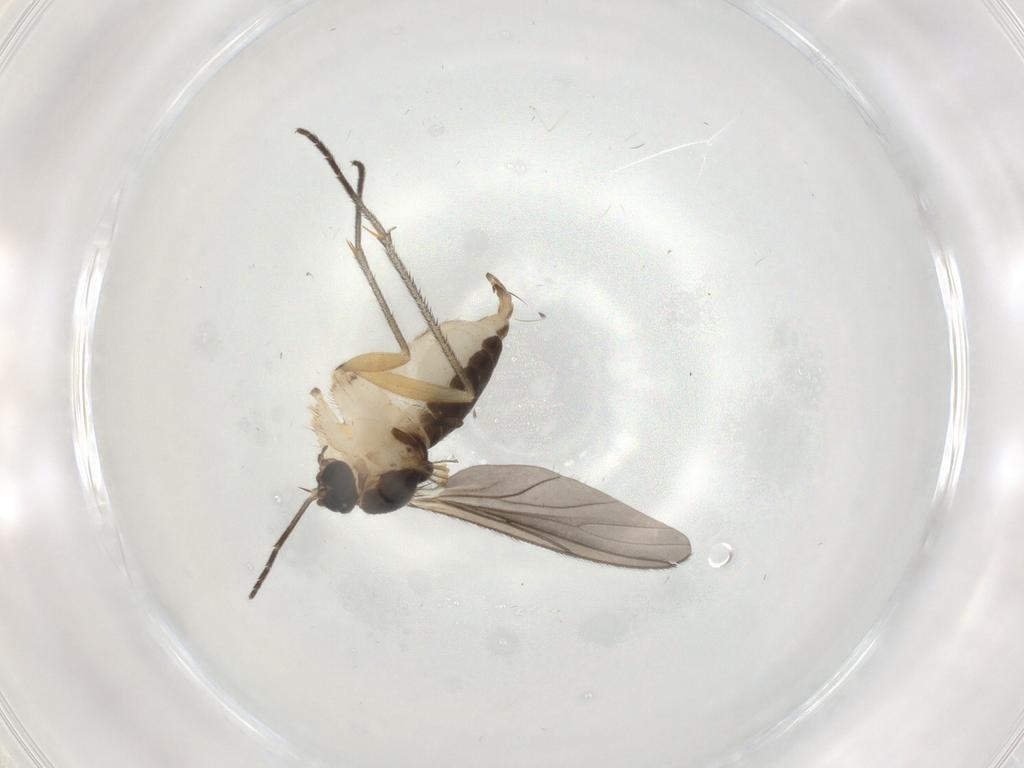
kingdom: Animalia
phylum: Arthropoda
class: Insecta
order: Diptera
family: Sciaridae
